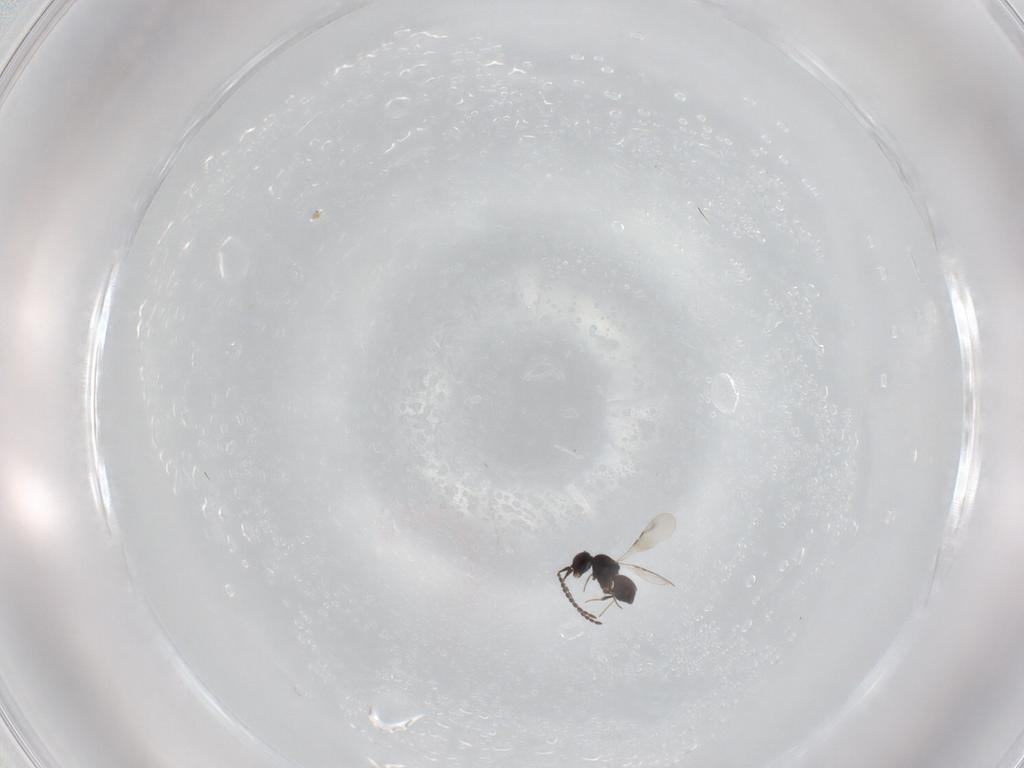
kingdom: Animalia
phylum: Arthropoda
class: Insecta
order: Hymenoptera
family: Ceraphronidae
